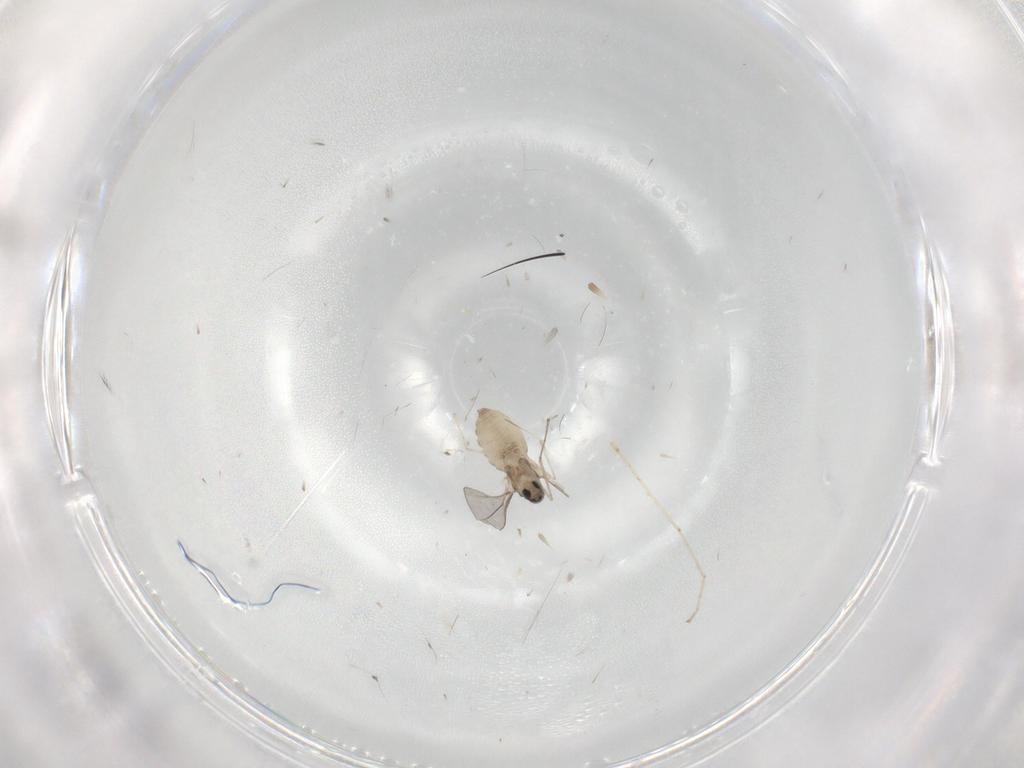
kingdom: Animalia
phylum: Arthropoda
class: Insecta
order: Diptera
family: Cecidomyiidae
